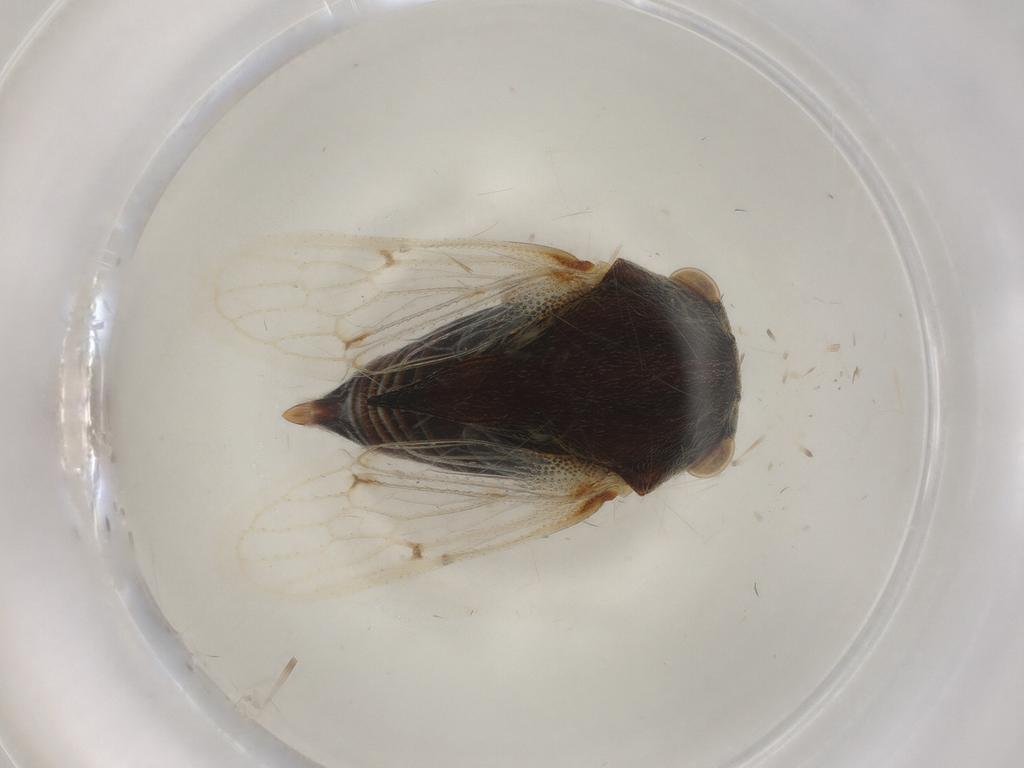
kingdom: Animalia
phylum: Arthropoda
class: Insecta
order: Hemiptera
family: Membracidae
